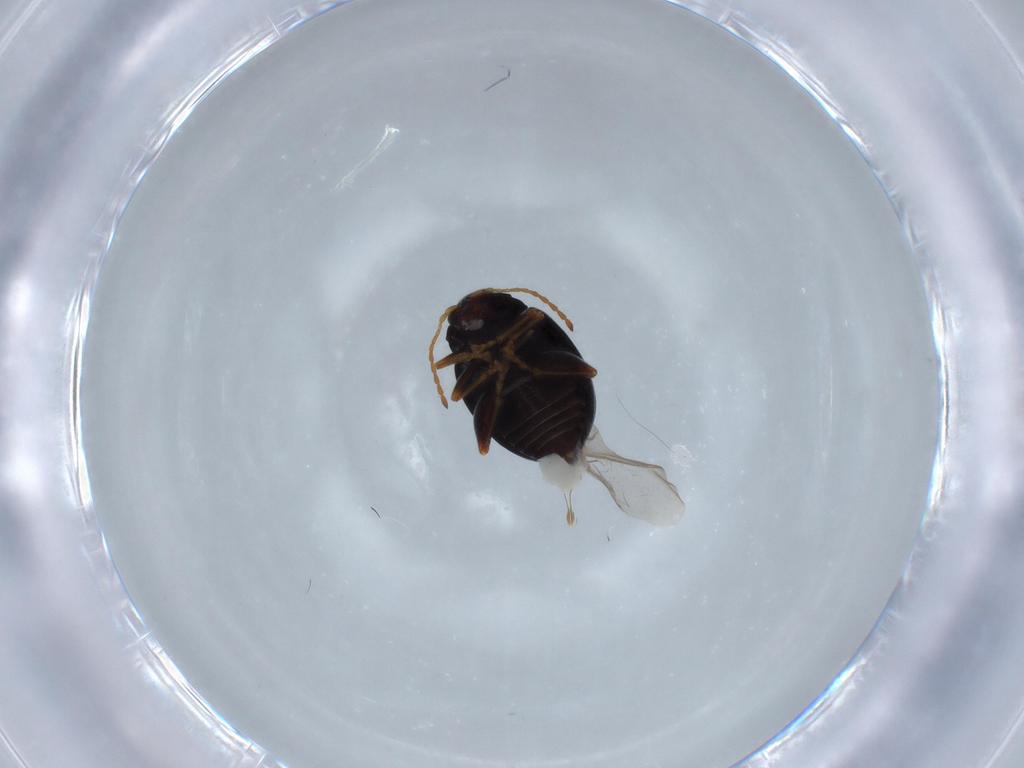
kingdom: Animalia
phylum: Arthropoda
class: Insecta
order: Coleoptera
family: Chrysomelidae
